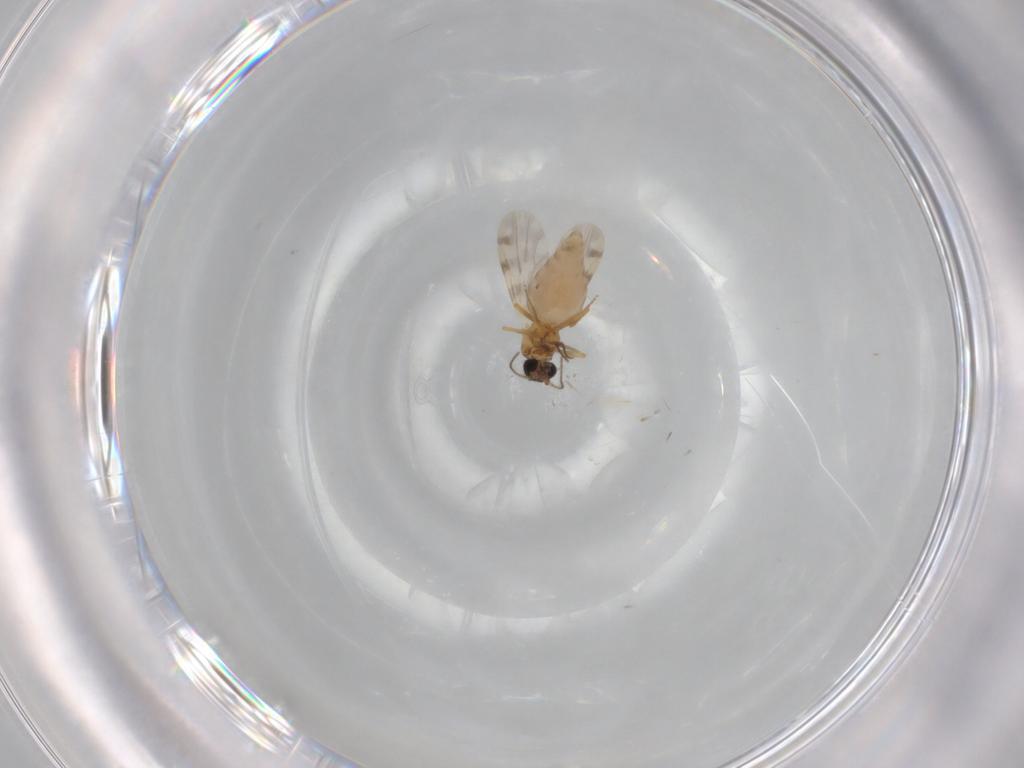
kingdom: Animalia
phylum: Arthropoda
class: Insecta
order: Diptera
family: Ceratopogonidae
